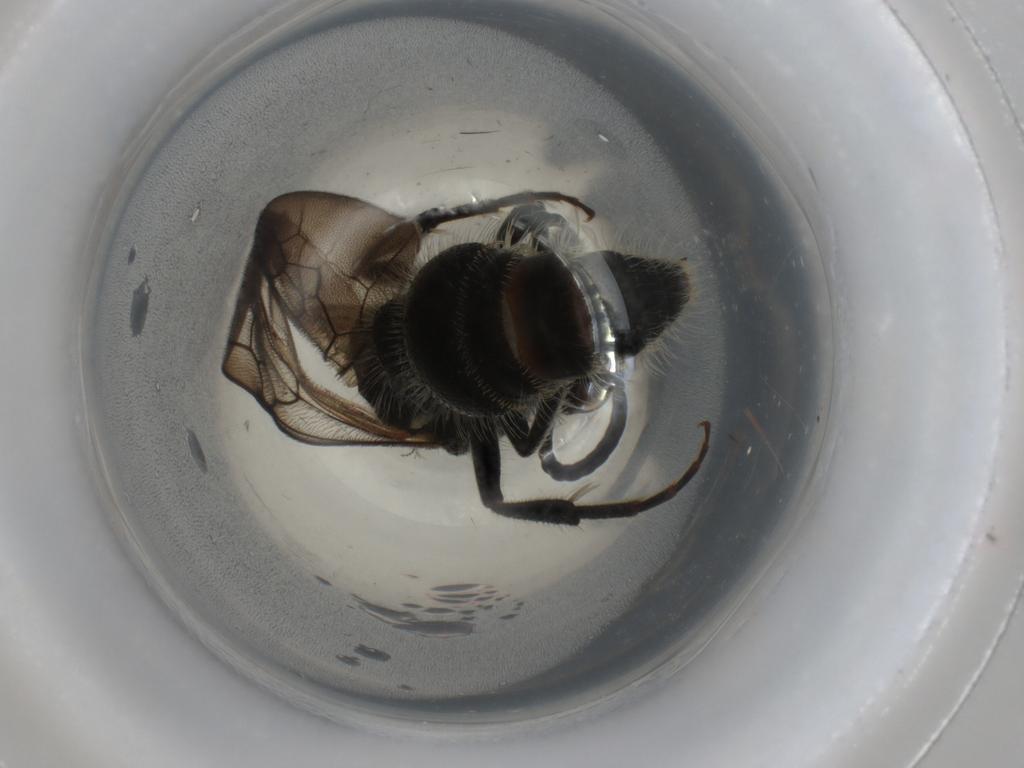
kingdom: Animalia
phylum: Arthropoda
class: Insecta
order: Diptera
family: Cecidomyiidae
